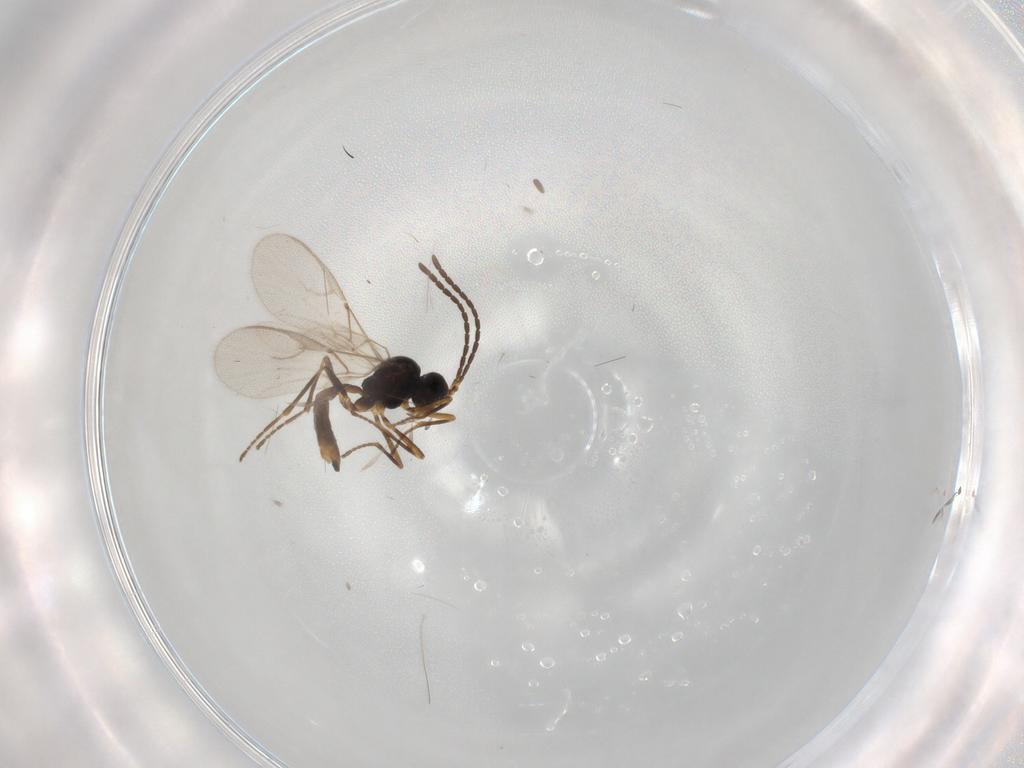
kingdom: Animalia
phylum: Arthropoda
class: Insecta
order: Hymenoptera
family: Braconidae
